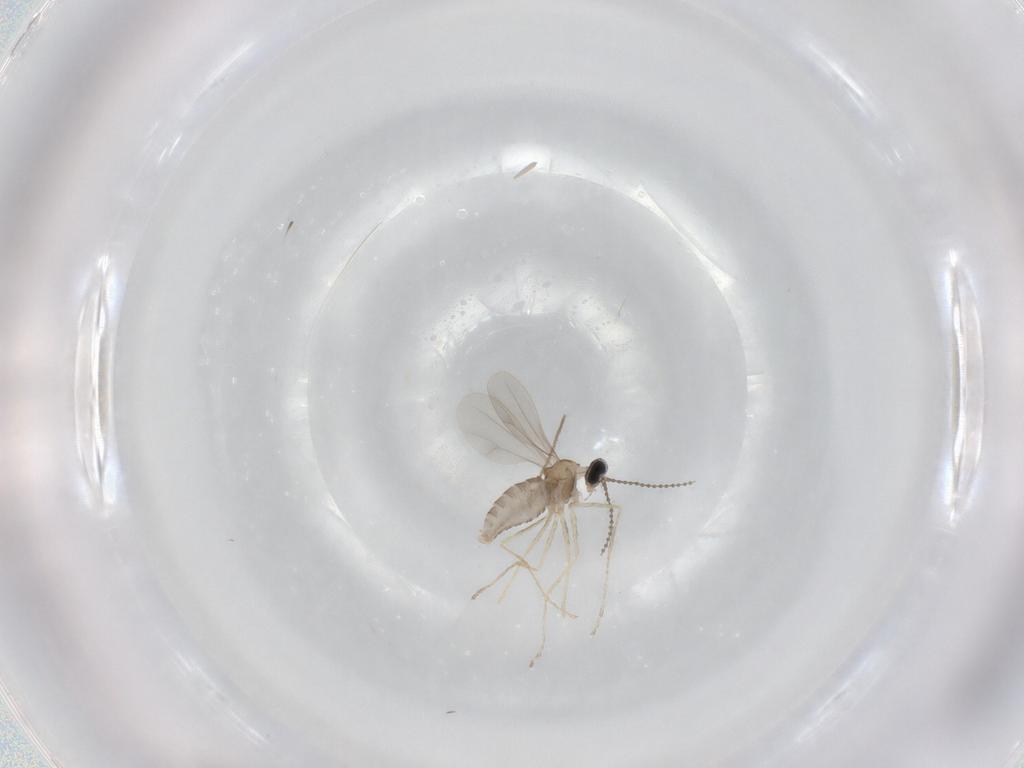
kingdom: Animalia
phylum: Arthropoda
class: Insecta
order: Diptera
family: Cecidomyiidae
